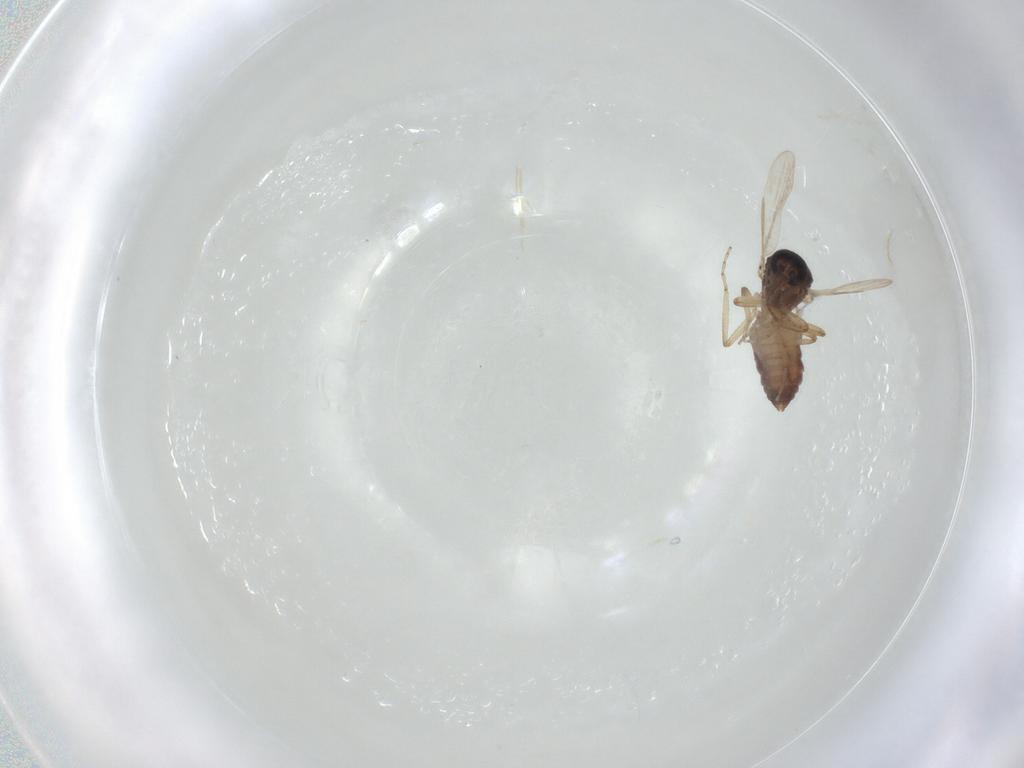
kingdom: Animalia
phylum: Arthropoda
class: Insecta
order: Diptera
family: Ceratopogonidae
